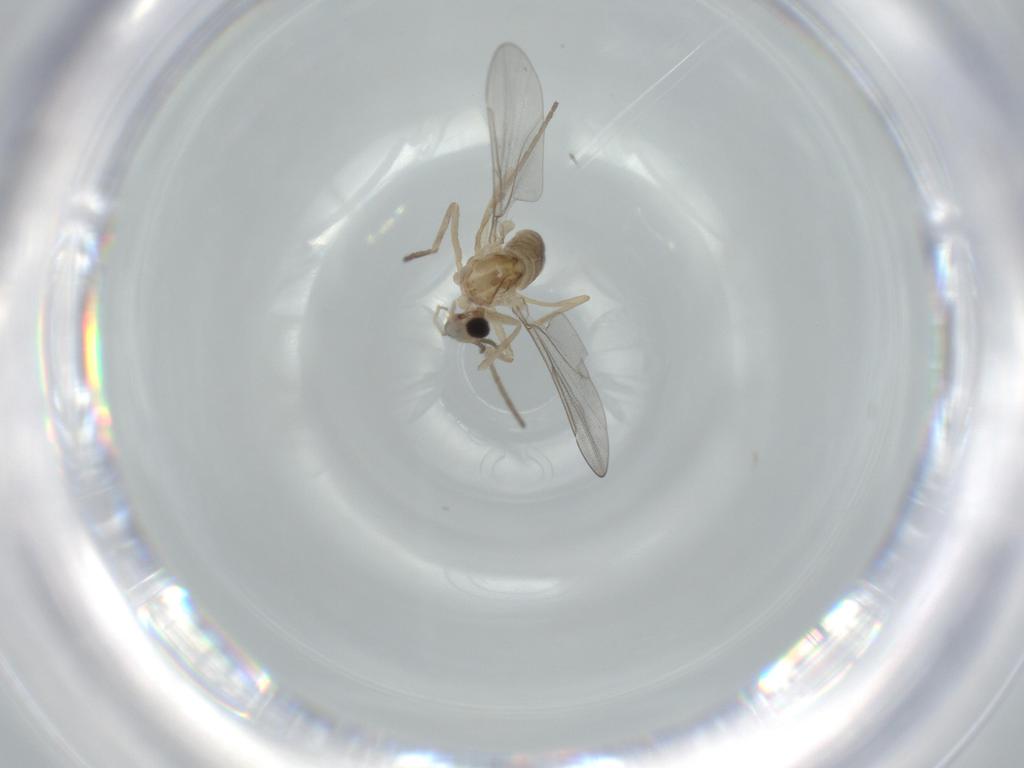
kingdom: Animalia
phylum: Arthropoda
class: Insecta
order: Diptera
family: Cecidomyiidae
